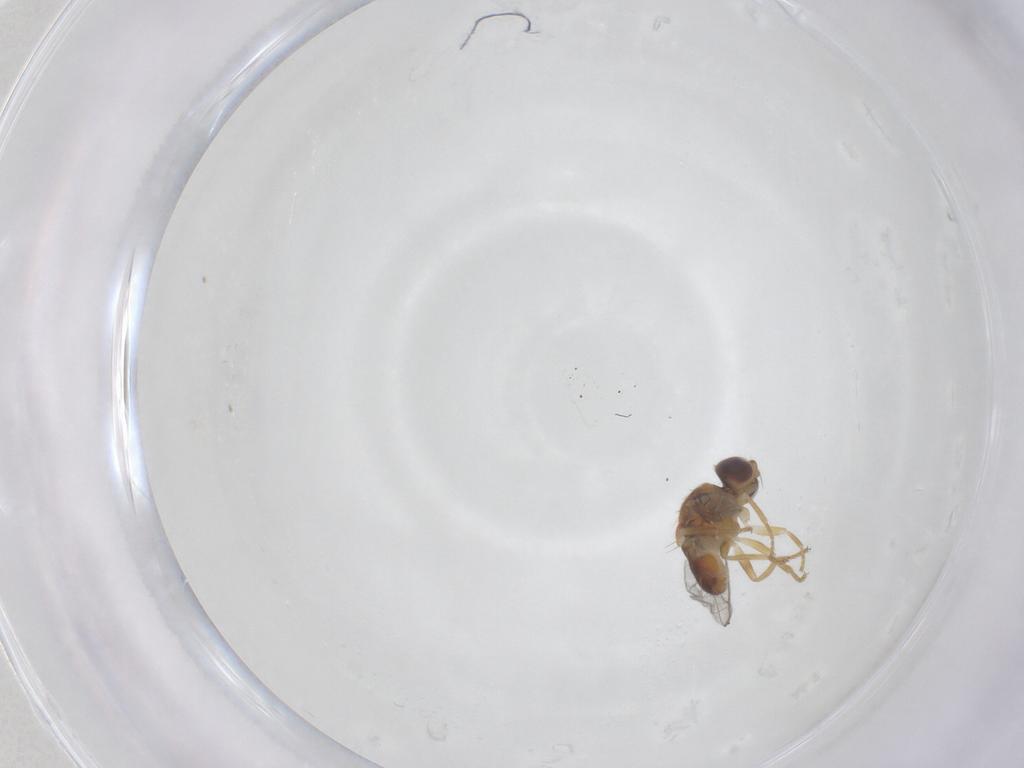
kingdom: Animalia
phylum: Arthropoda
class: Insecta
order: Diptera
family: Chloropidae
